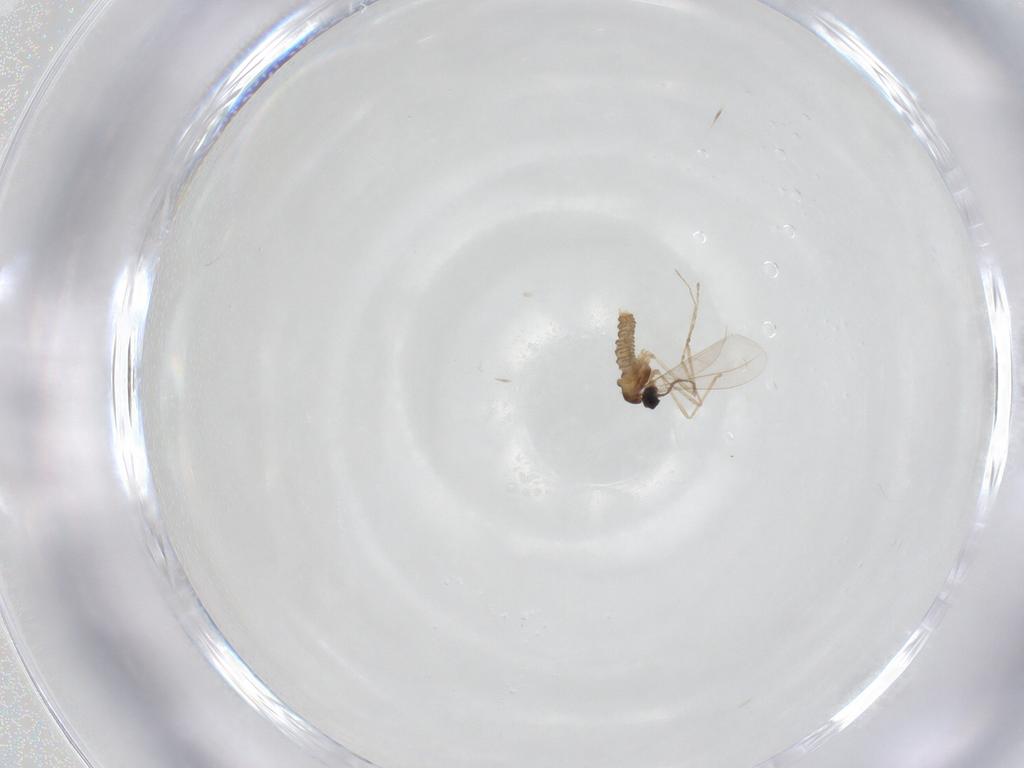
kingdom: Animalia
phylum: Arthropoda
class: Insecta
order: Diptera
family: Cecidomyiidae
